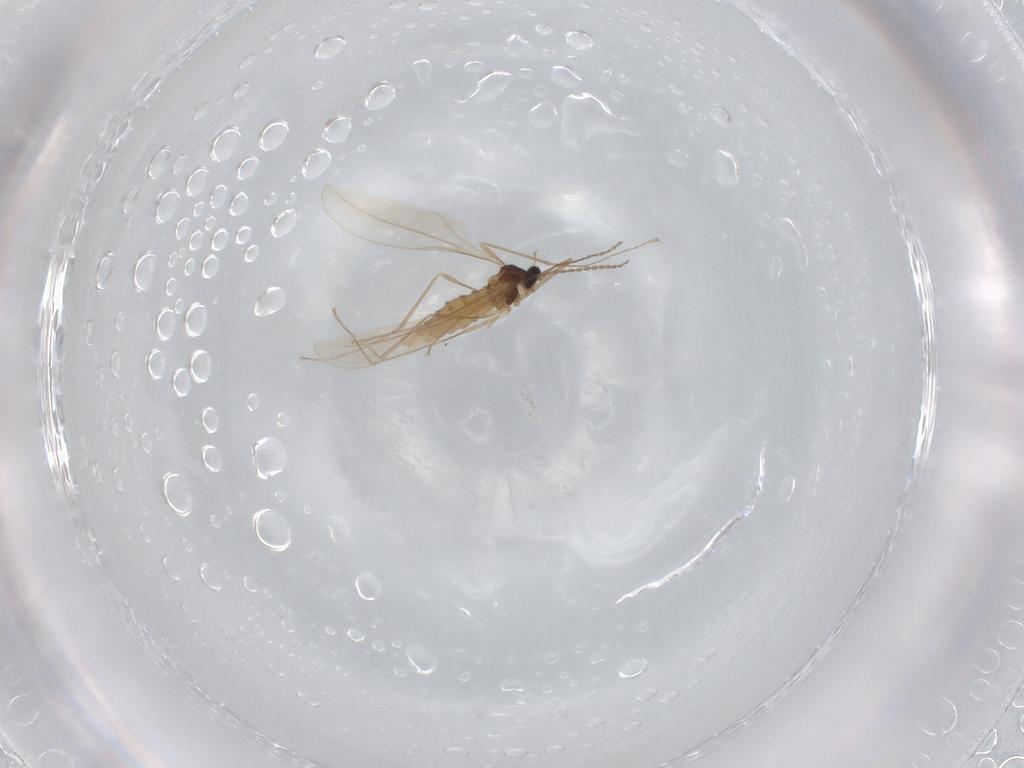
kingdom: Animalia
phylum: Arthropoda
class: Insecta
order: Diptera
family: Cecidomyiidae
